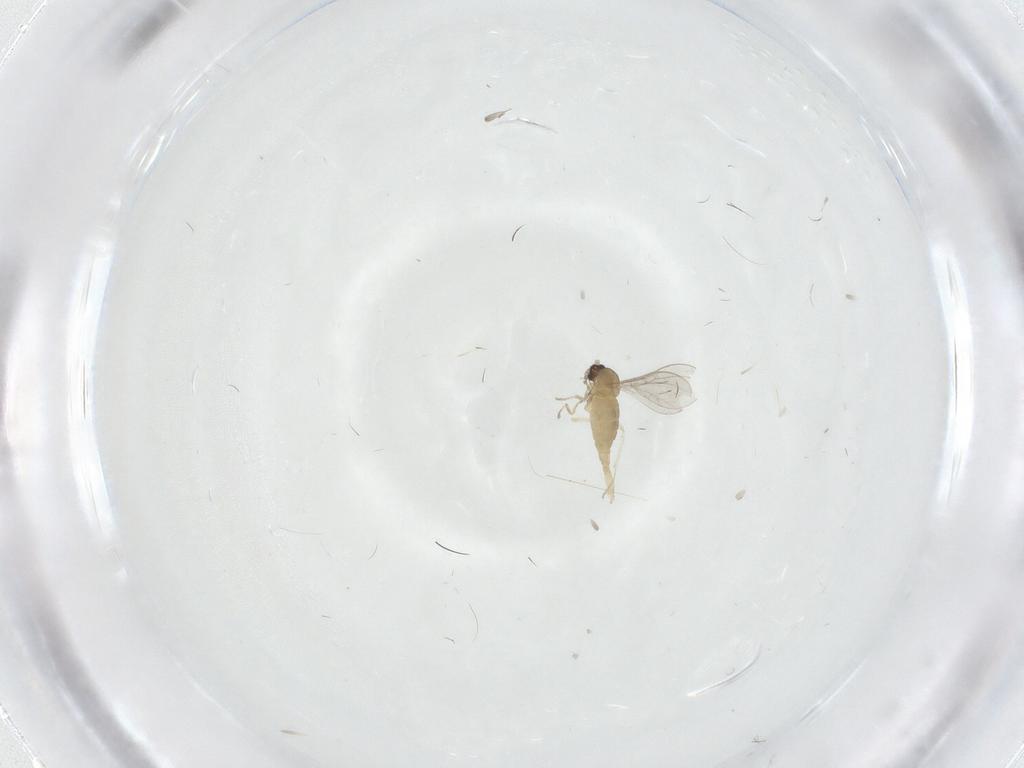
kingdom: Animalia
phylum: Arthropoda
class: Insecta
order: Diptera
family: Cecidomyiidae
